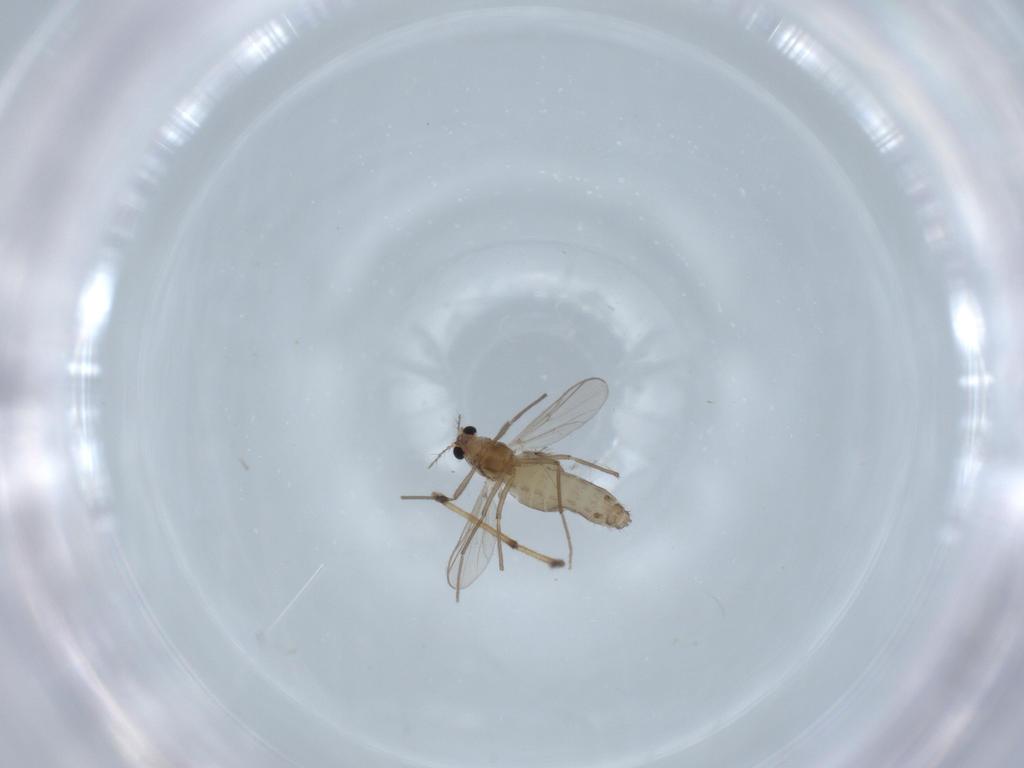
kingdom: Animalia
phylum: Arthropoda
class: Insecta
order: Diptera
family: Chironomidae
